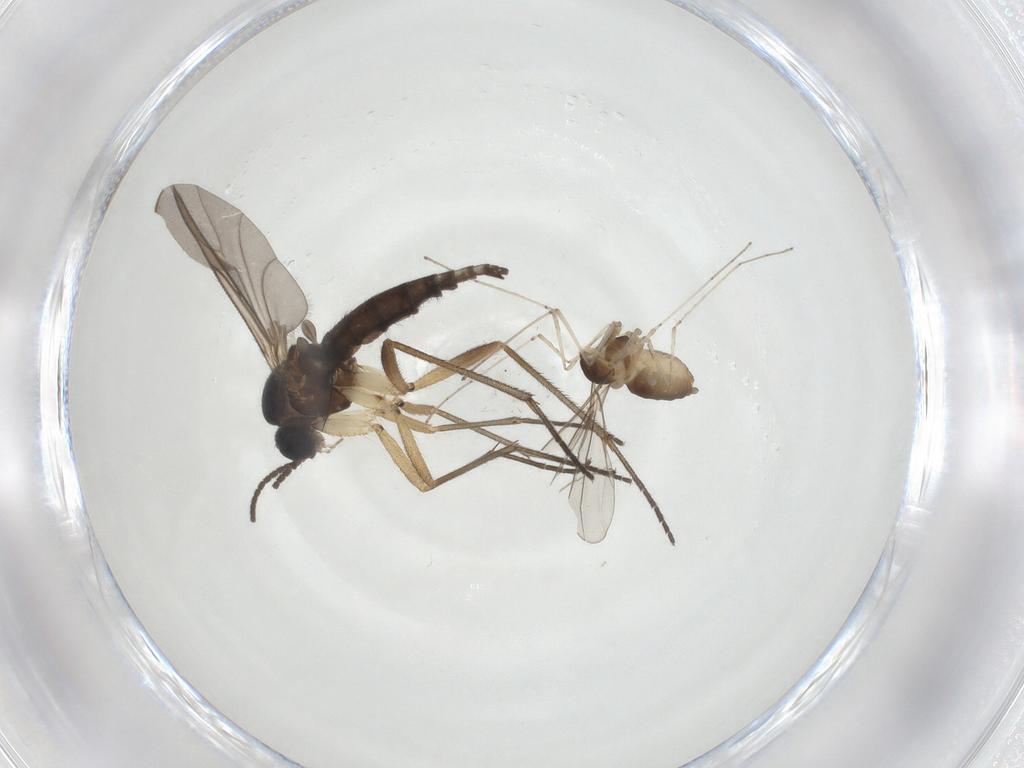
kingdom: Animalia
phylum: Arthropoda
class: Insecta
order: Diptera
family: Cecidomyiidae
